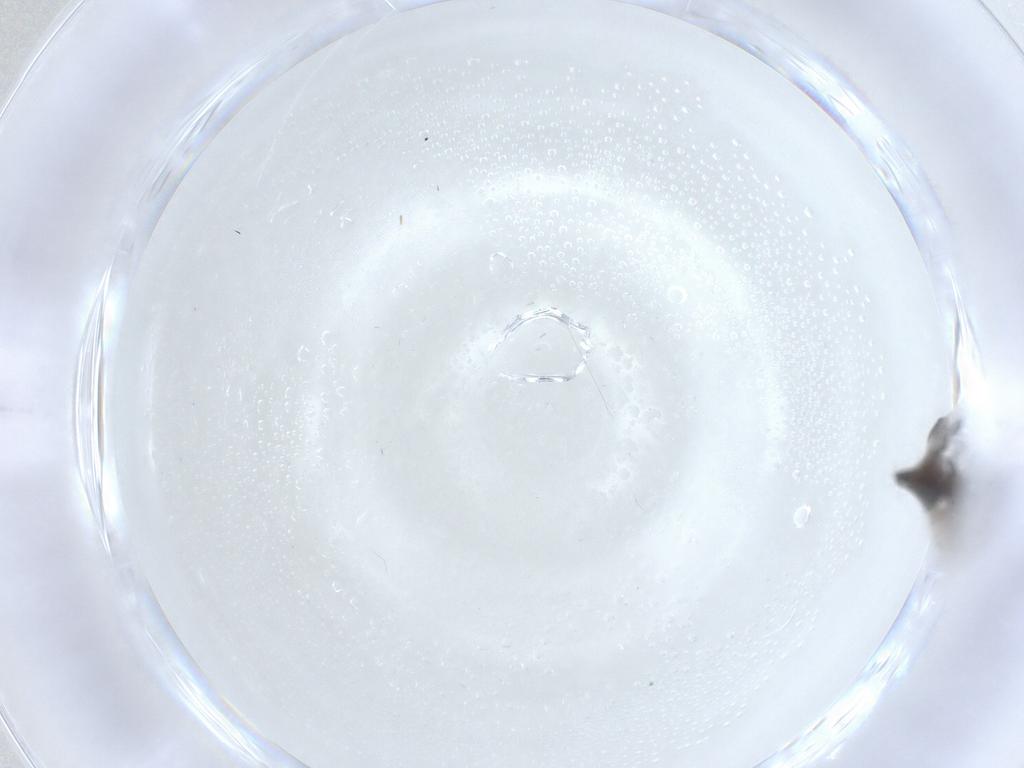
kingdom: Animalia
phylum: Arthropoda
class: Insecta
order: Diptera
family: Phoridae
